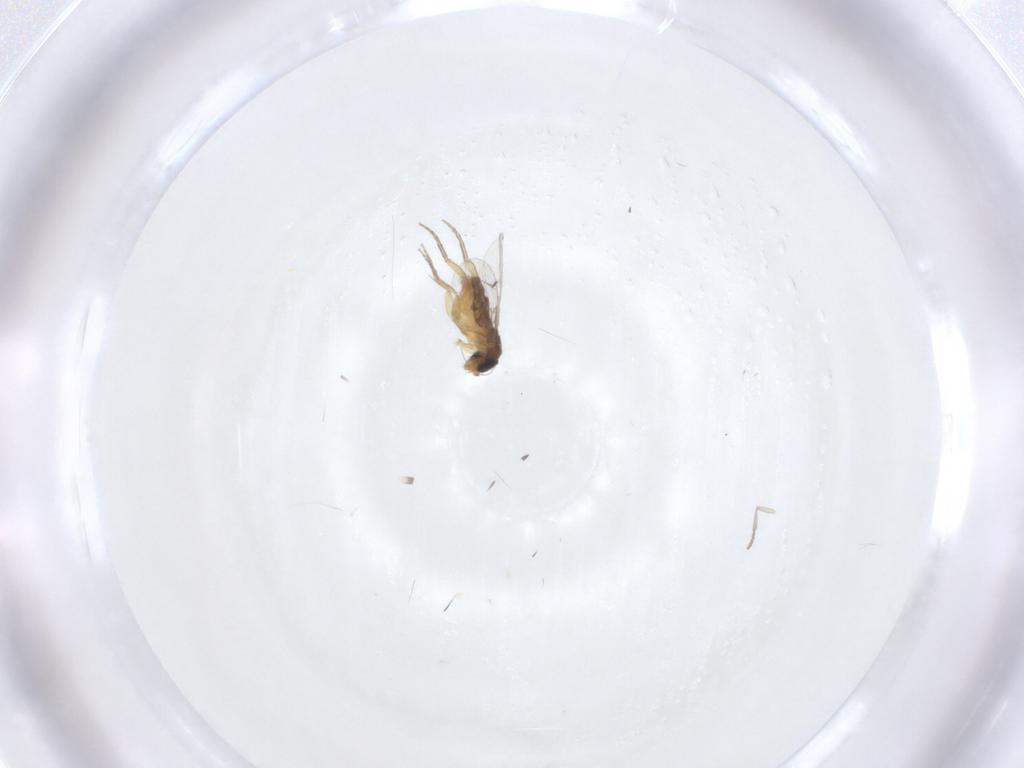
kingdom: Animalia
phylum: Arthropoda
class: Insecta
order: Diptera
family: Psychodidae
